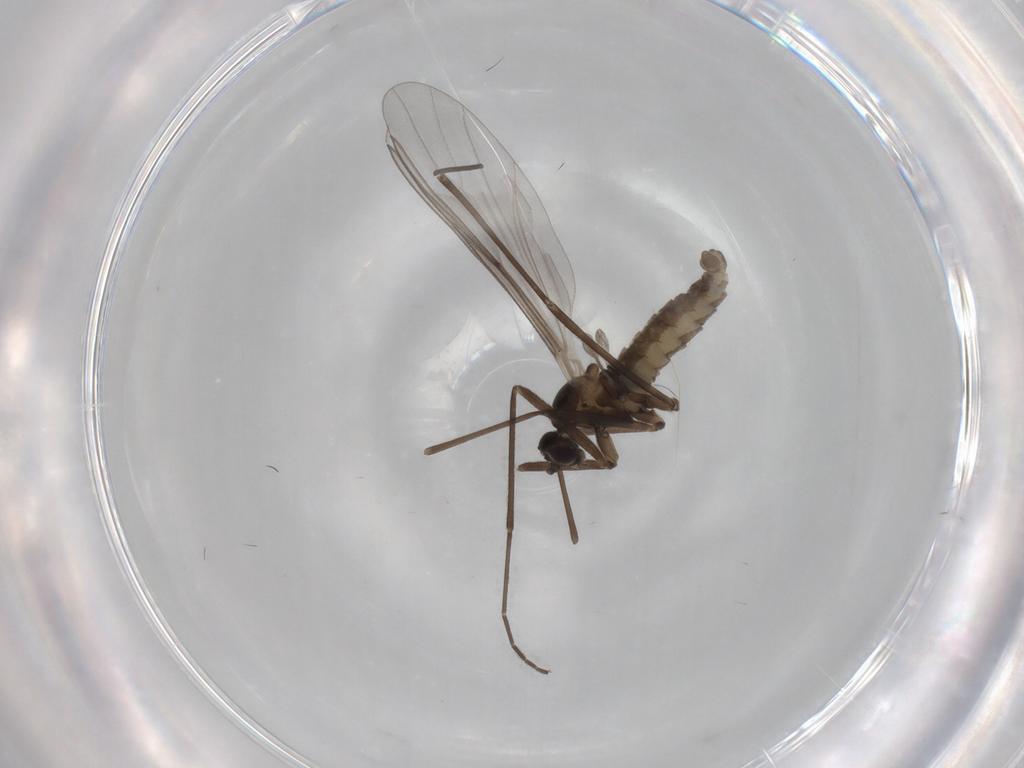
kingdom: Animalia
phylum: Arthropoda
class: Insecta
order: Diptera
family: Cecidomyiidae
